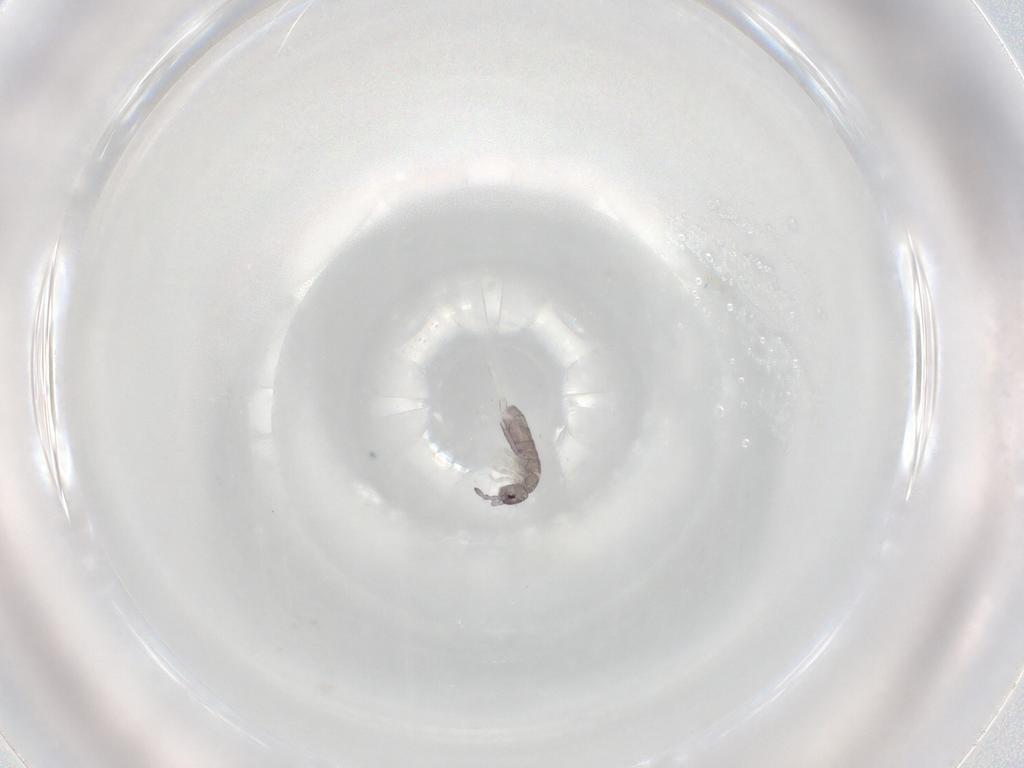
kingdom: Animalia
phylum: Arthropoda
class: Collembola
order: Entomobryomorpha
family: Isotomidae
